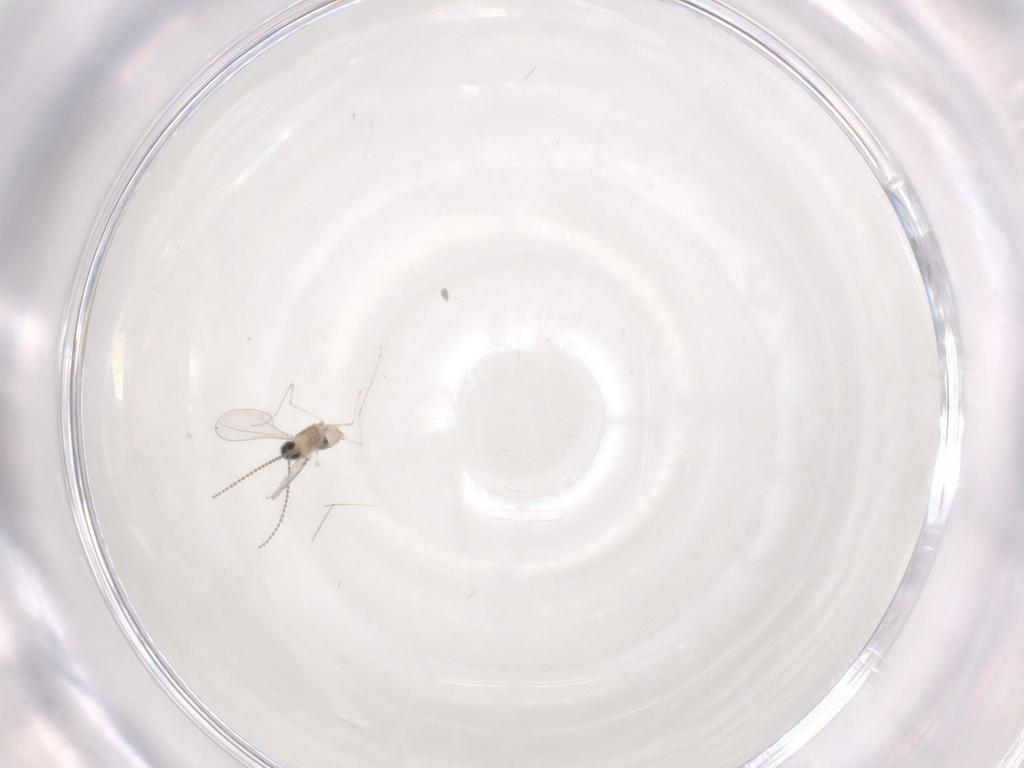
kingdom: Animalia
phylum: Arthropoda
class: Insecta
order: Diptera
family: Cecidomyiidae
